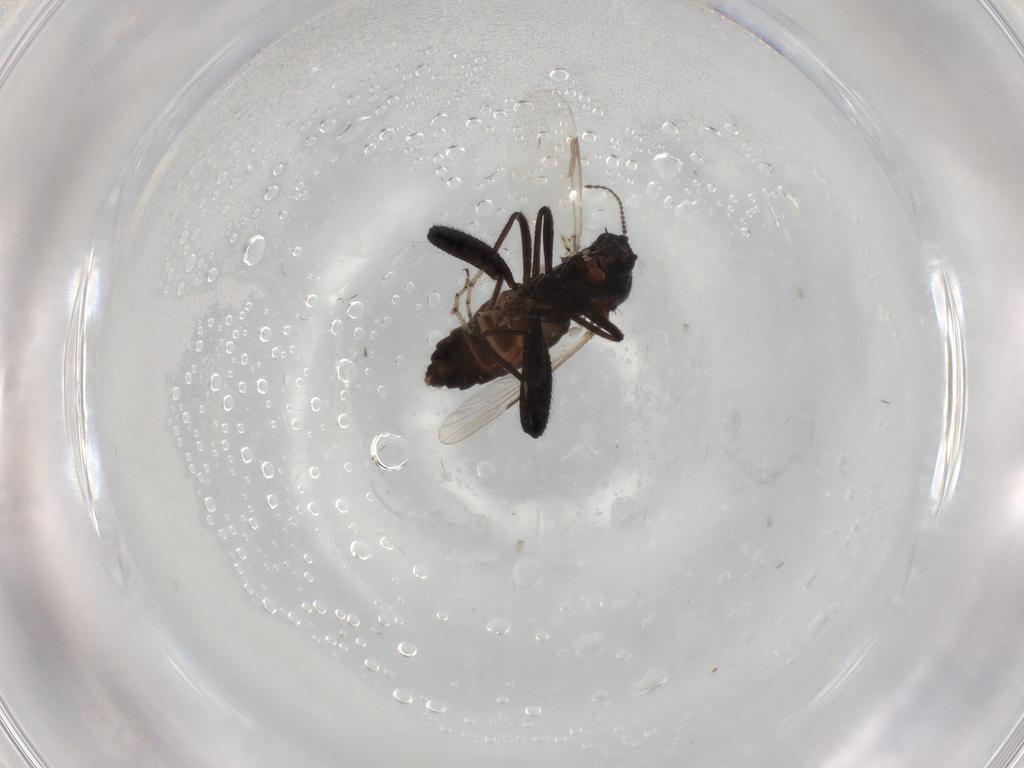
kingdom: Animalia
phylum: Arthropoda
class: Insecta
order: Diptera
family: Ceratopogonidae
